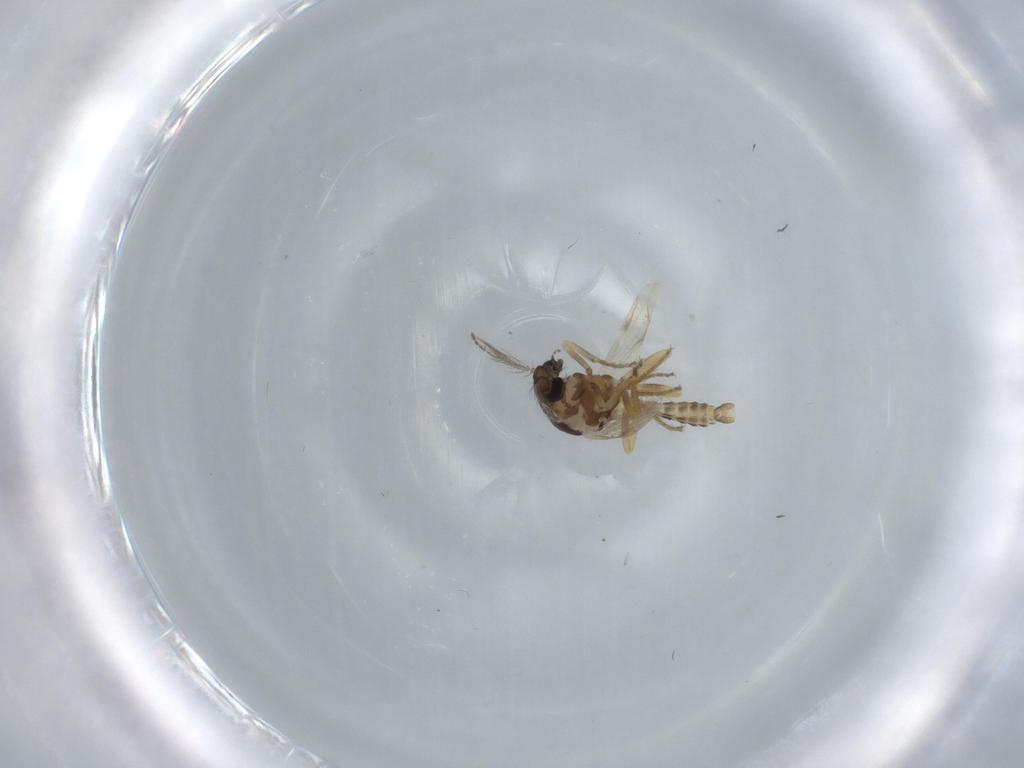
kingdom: Animalia
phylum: Arthropoda
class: Insecta
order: Diptera
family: Ceratopogonidae
